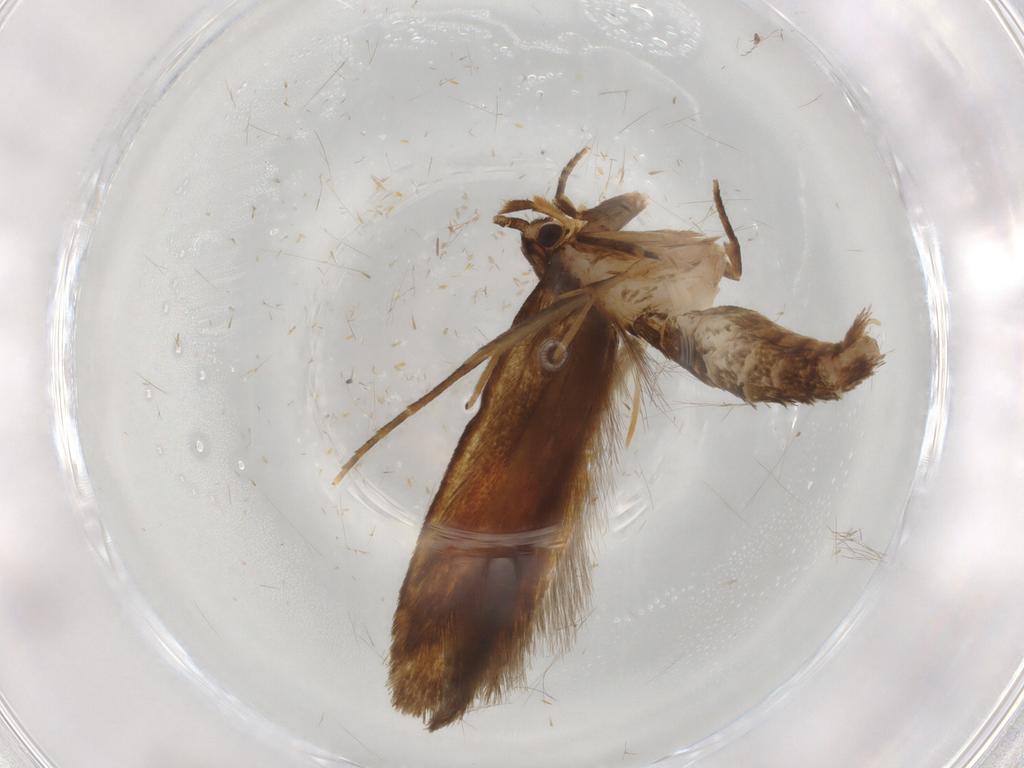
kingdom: Animalia
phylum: Arthropoda
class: Insecta
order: Lepidoptera
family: Tineidae
